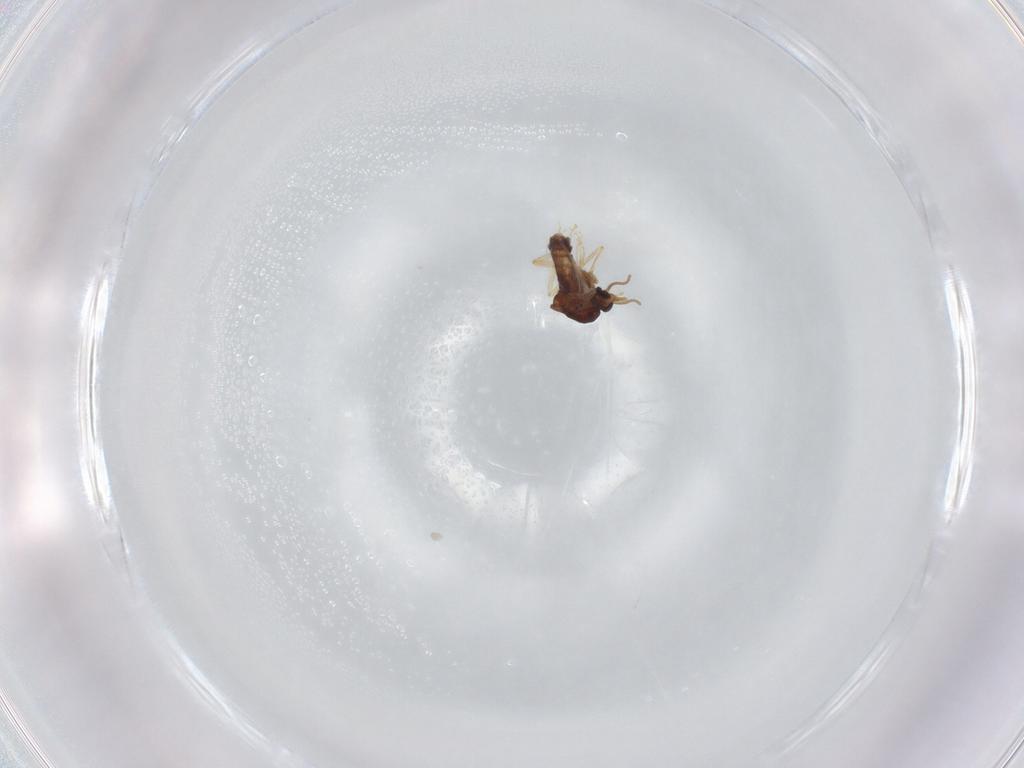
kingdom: Animalia
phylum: Arthropoda
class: Insecta
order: Diptera
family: Ceratopogonidae
